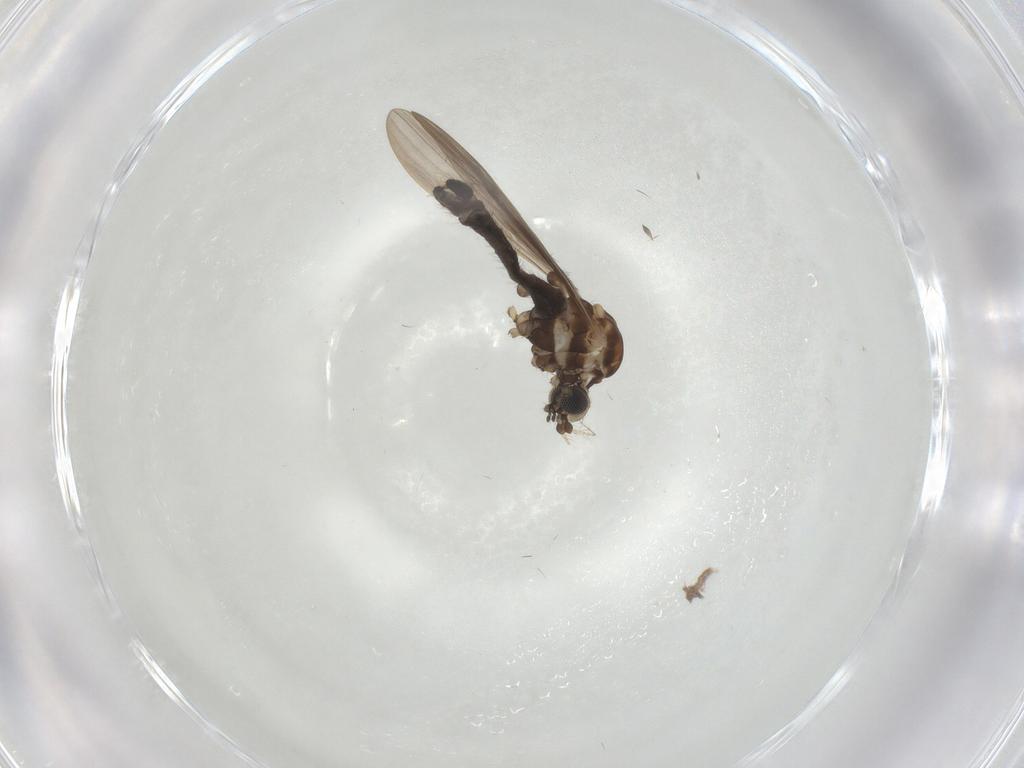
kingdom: Animalia
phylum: Arthropoda
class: Insecta
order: Diptera
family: Limoniidae
